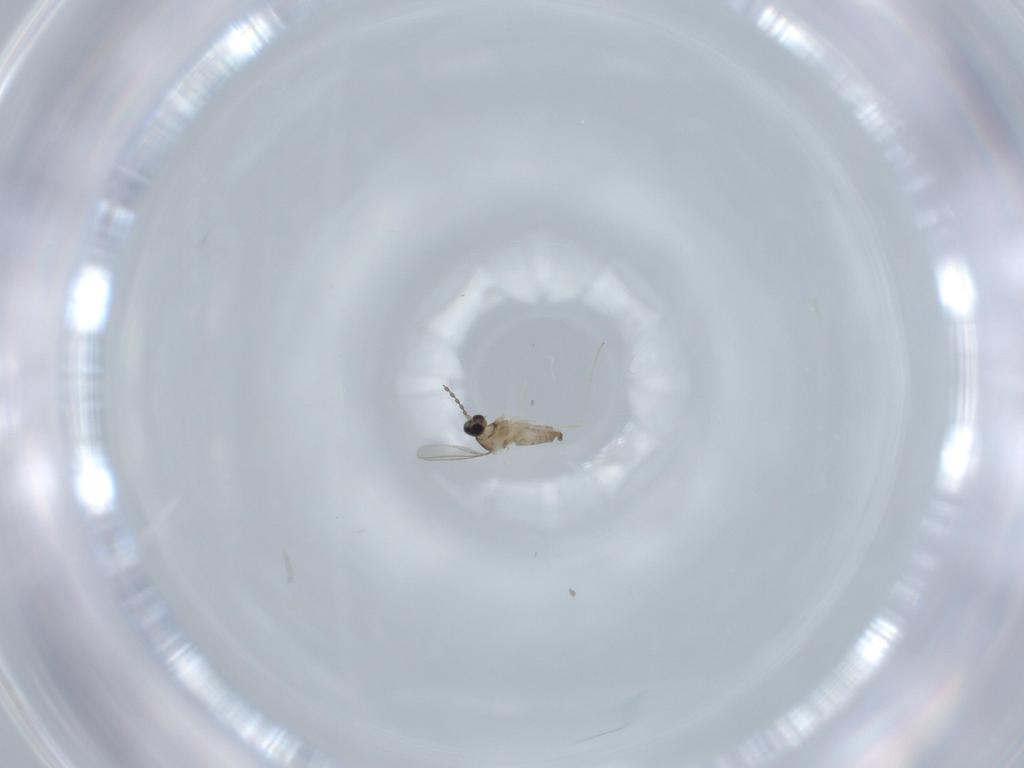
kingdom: Animalia
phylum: Arthropoda
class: Insecta
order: Diptera
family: Cecidomyiidae
